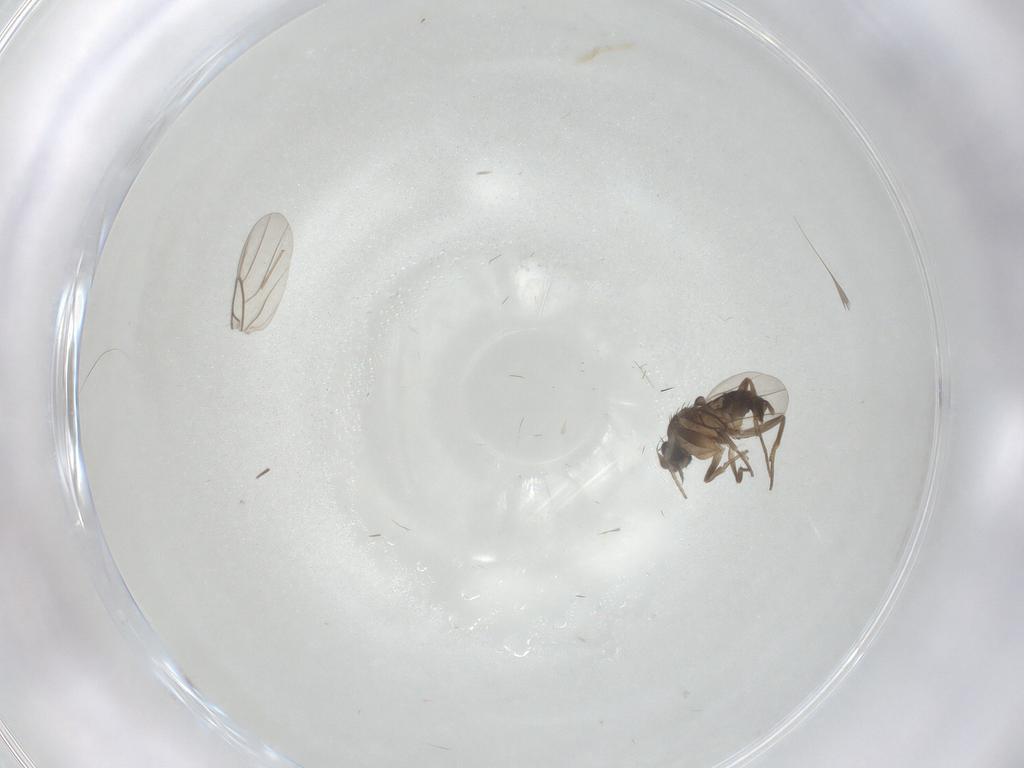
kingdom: Animalia
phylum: Arthropoda
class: Insecta
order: Diptera
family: Phoridae
